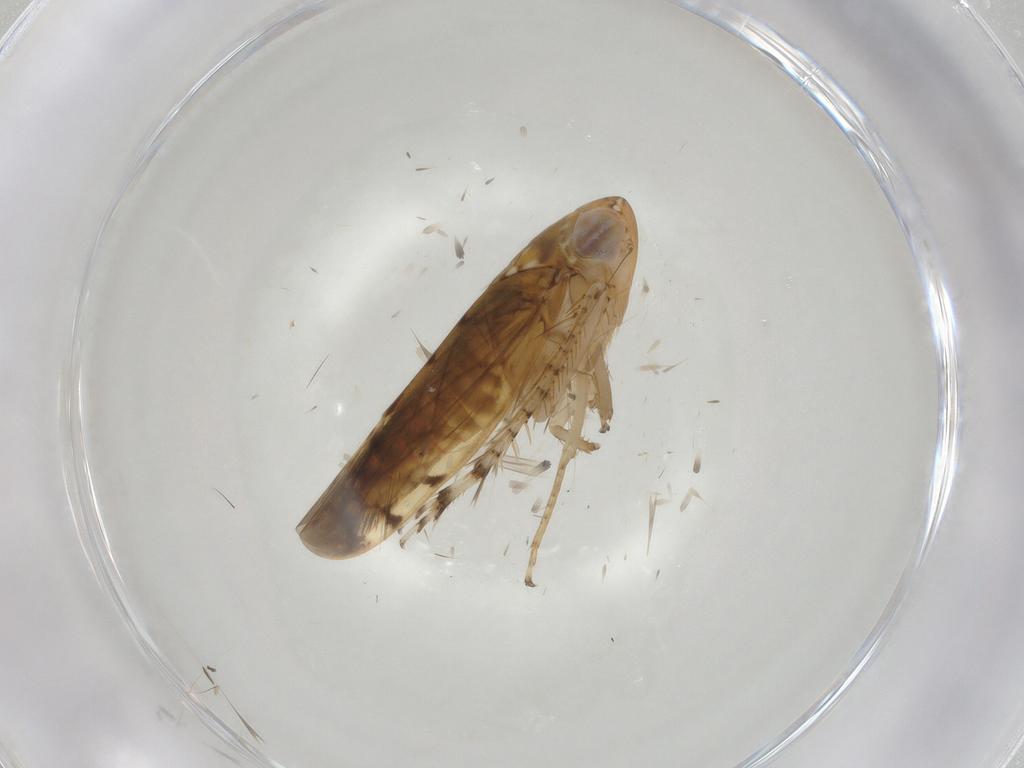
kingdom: Animalia
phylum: Arthropoda
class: Insecta
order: Hemiptera
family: Cicadellidae
